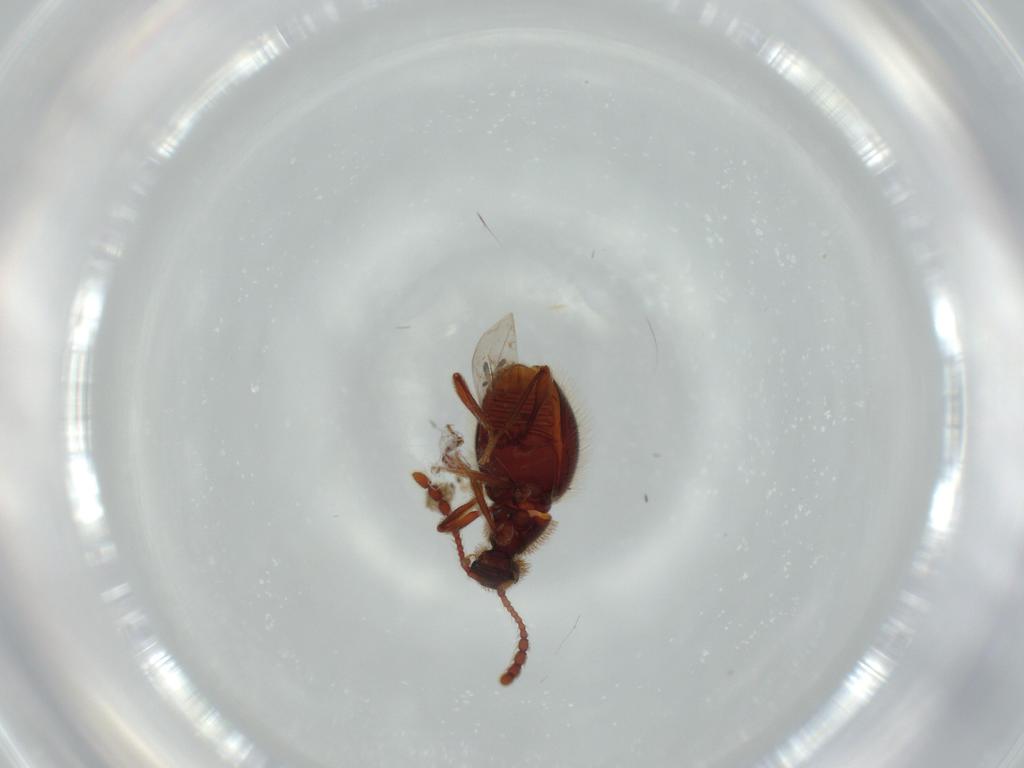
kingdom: Animalia
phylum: Arthropoda
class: Insecta
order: Coleoptera
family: Staphylinidae
